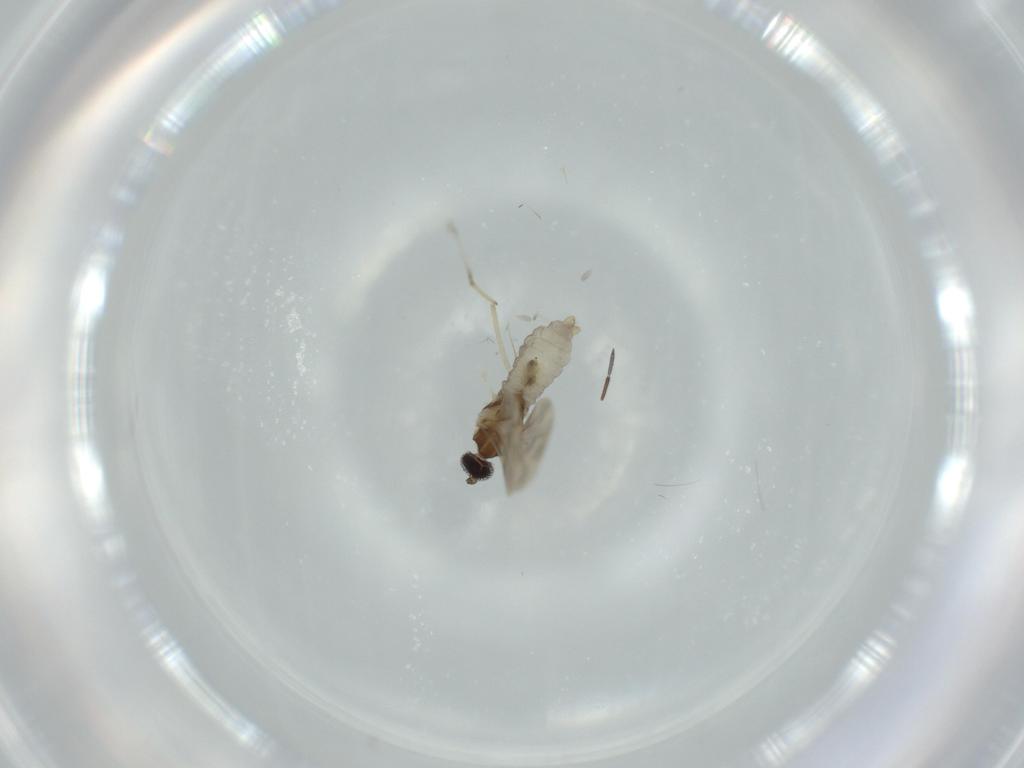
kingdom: Animalia
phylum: Arthropoda
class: Insecta
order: Diptera
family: Cecidomyiidae
